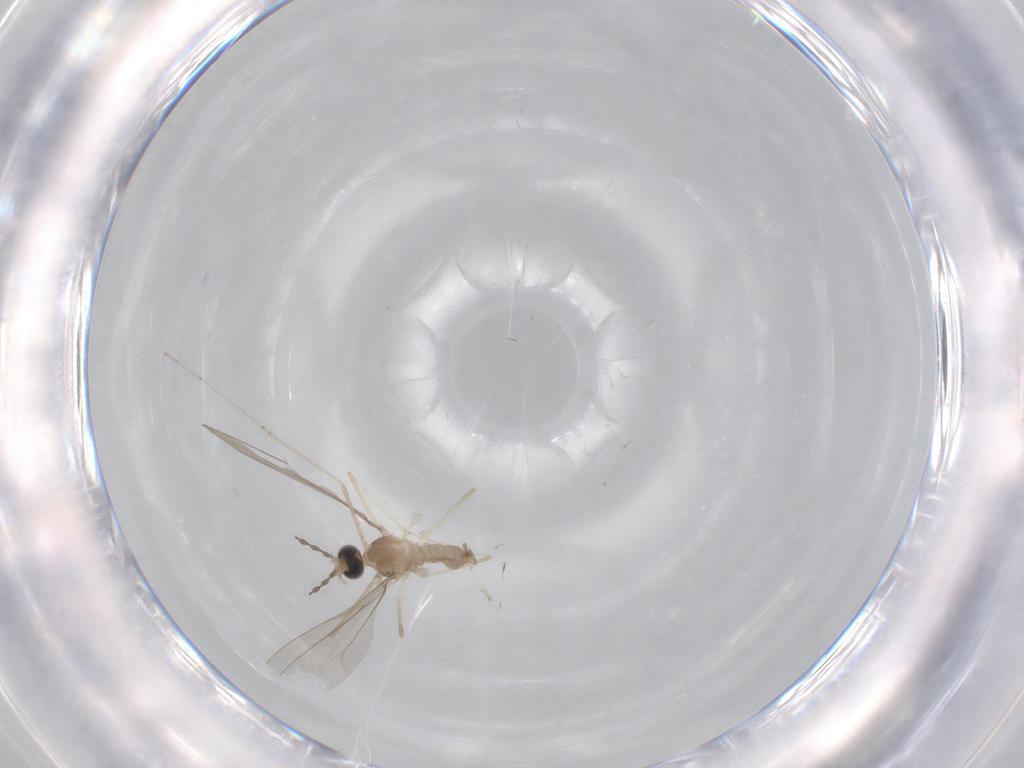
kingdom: Animalia
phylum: Arthropoda
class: Insecta
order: Diptera
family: Cecidomyiidae
